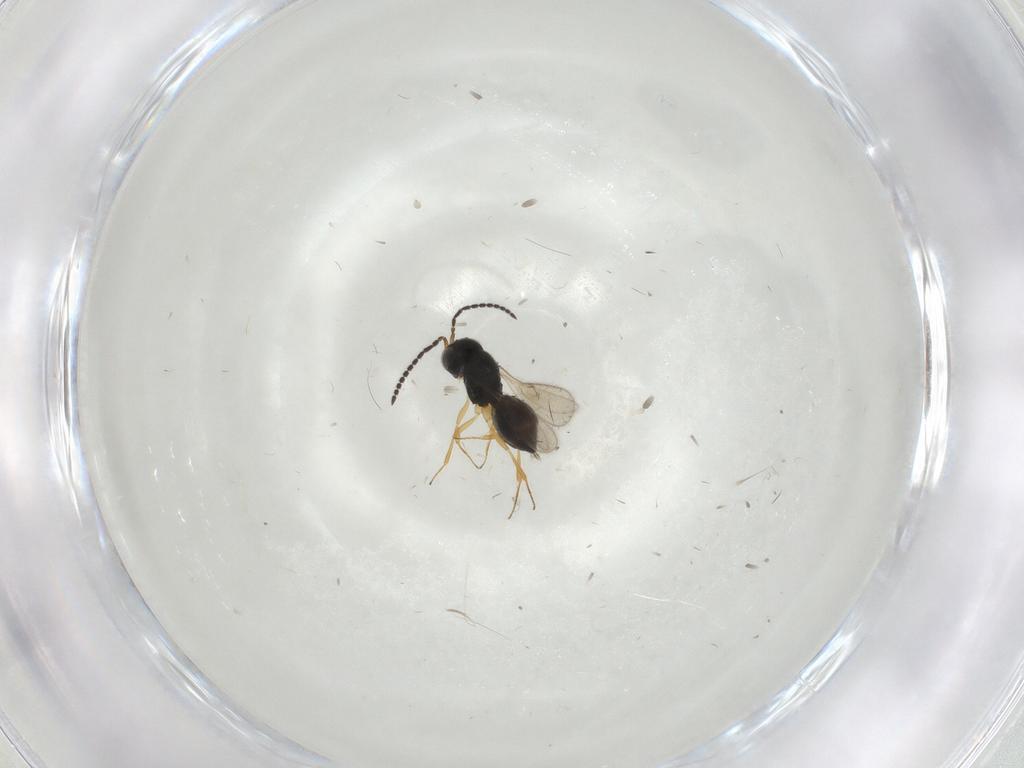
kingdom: Animalia
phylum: Arthropoda
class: Insecta
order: Hymenoptera
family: Scelionidae
